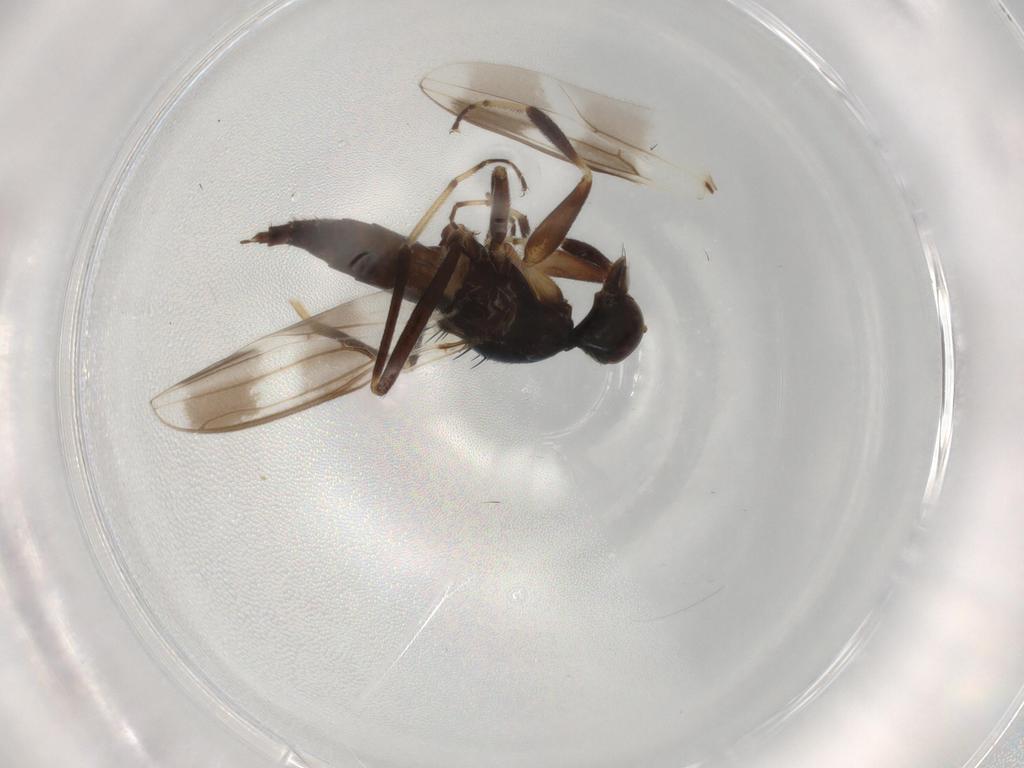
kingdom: Animalia
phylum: Arthropoda
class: Insecta
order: Diptera
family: Hybotidae
